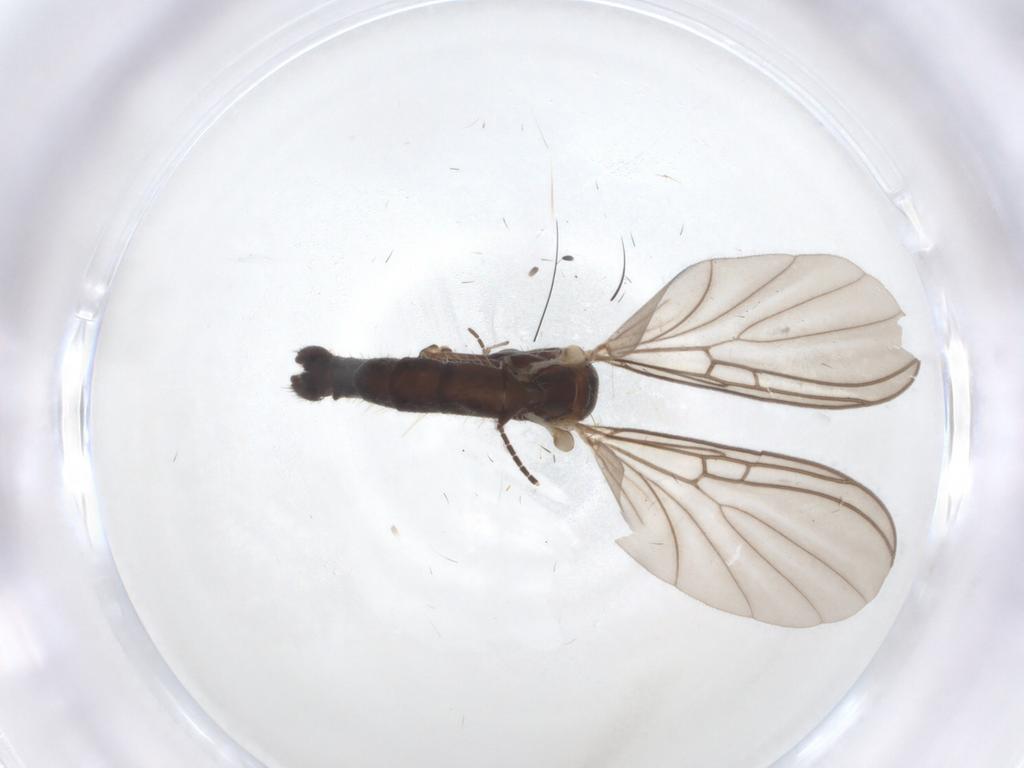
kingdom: Animalia
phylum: Arthropoda
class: Insecta
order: Diptera
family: Sciaridae
